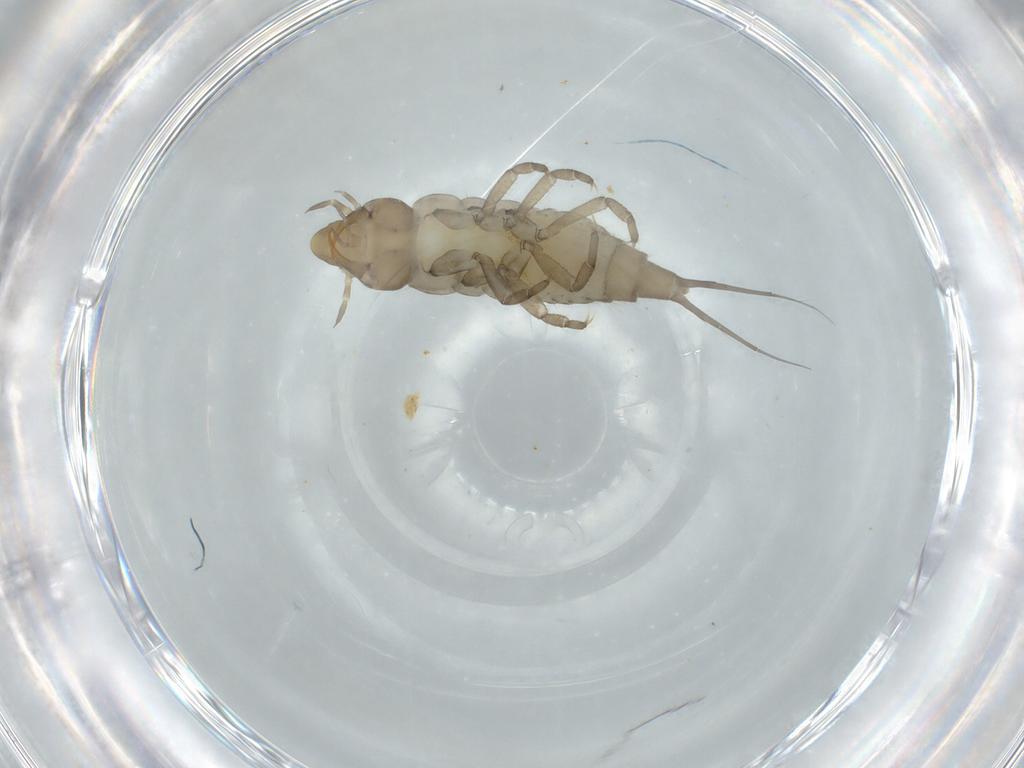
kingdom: Animalia
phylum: Arthropoda
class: Insecta
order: Coleoptera
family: Dytiscidae
